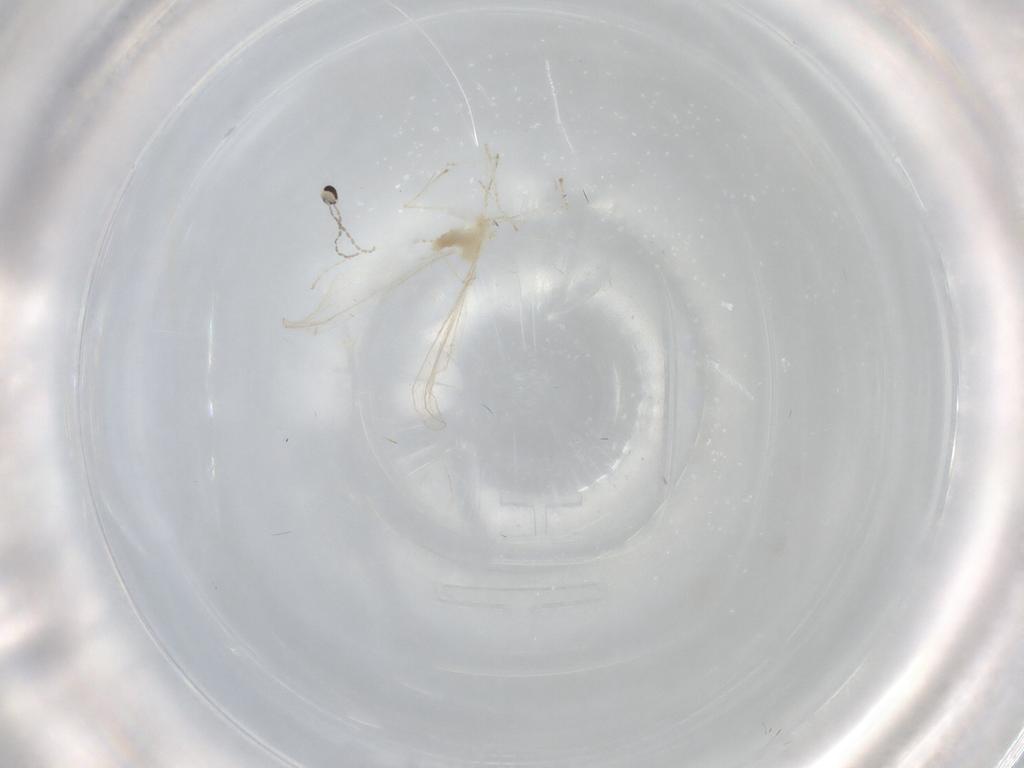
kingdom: Animalia
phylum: Arthropoda
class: Insecta
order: Diptera
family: Cecidomyiidae
